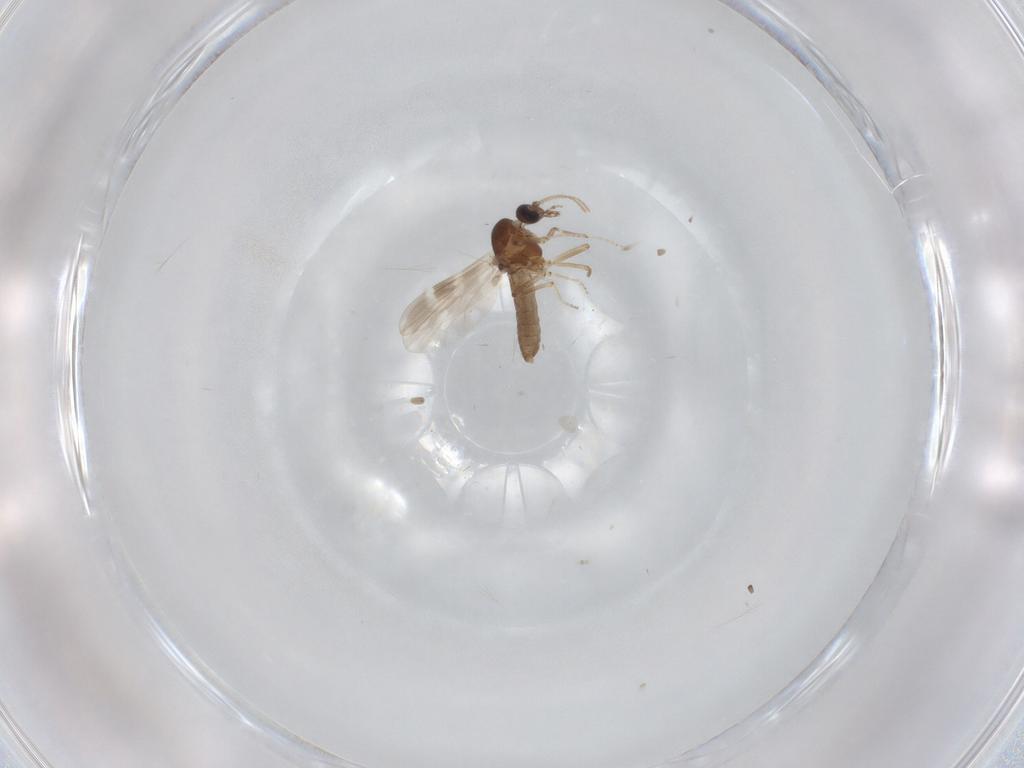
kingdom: Animalia
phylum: Arthropoda
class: Insecta
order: Diptera
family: Ceratopogonidae
